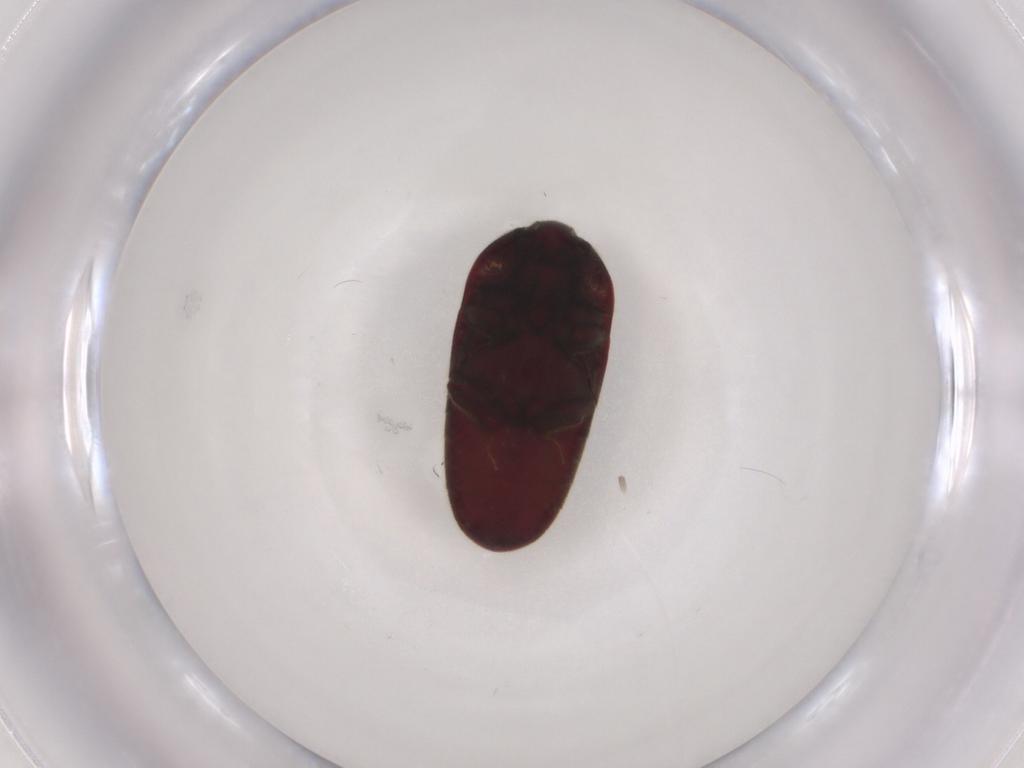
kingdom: Animalia
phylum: Arthropoda
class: Insecta
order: Coleoptera
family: Throscidae
